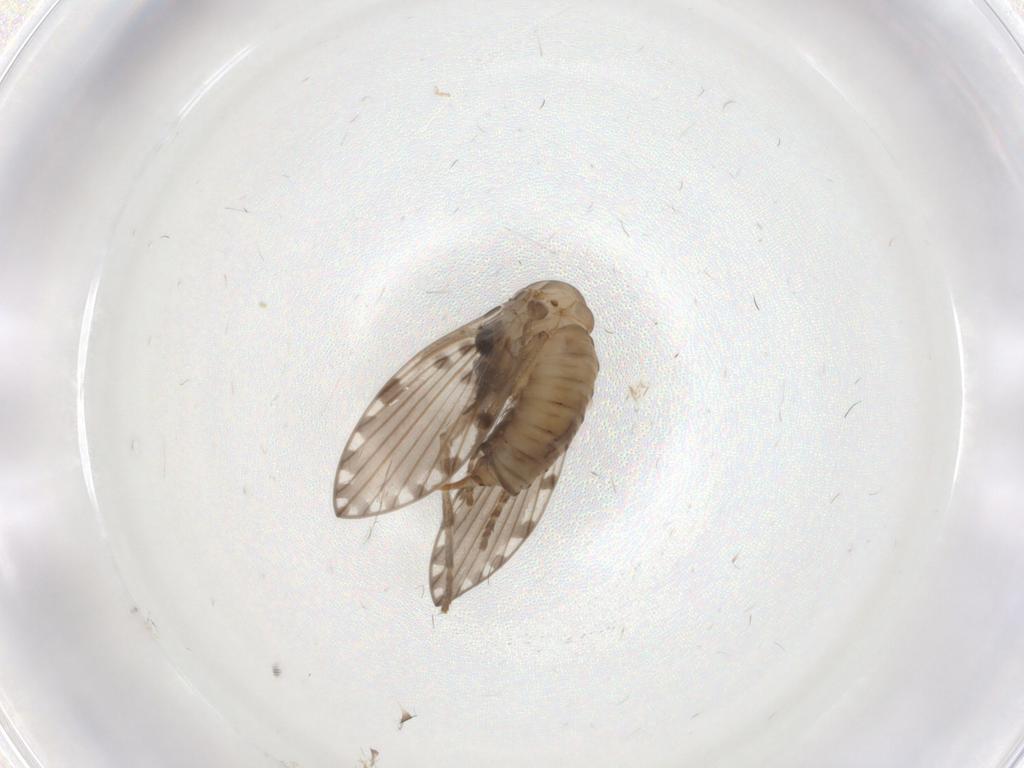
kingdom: Animalia
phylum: Arthropoda
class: Insecta
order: Diptera
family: Psychodidae
